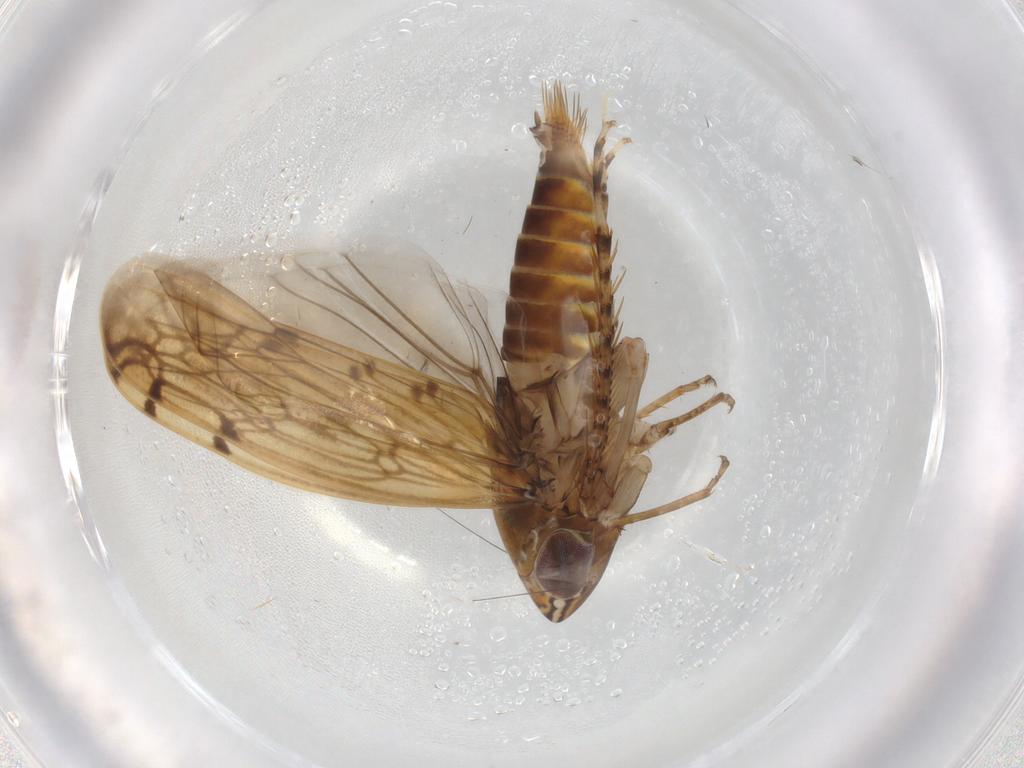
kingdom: Animalia
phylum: Arthropoda
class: Insecta
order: Hemiptera
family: Cicadellidae
